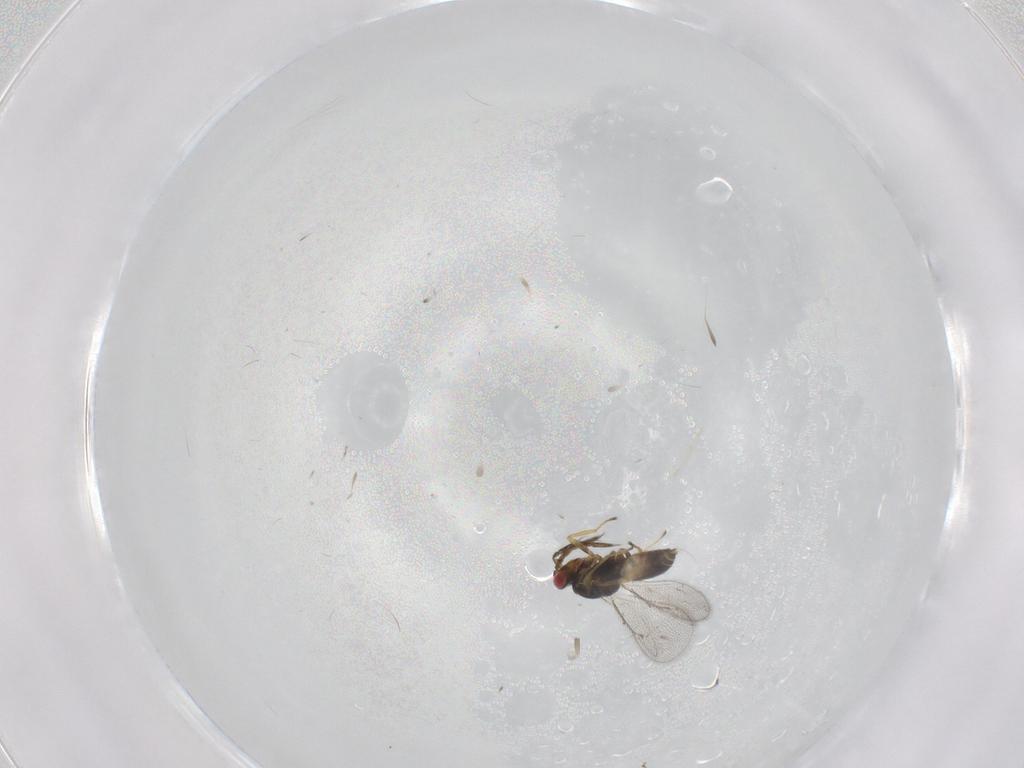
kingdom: Animalia
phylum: Arthropoda
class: Insecta
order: Hymenoptera
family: Eulophidae
